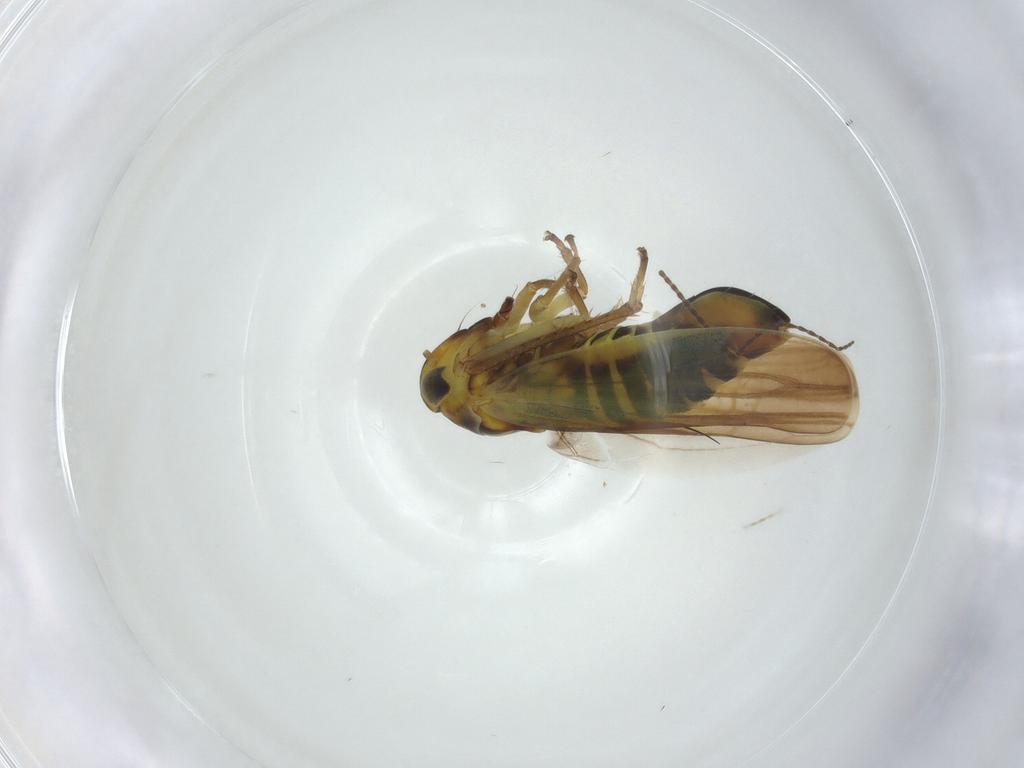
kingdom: Animalia
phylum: Arthropoda
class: Insecta
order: Hemiptera
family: Cicadellidae
